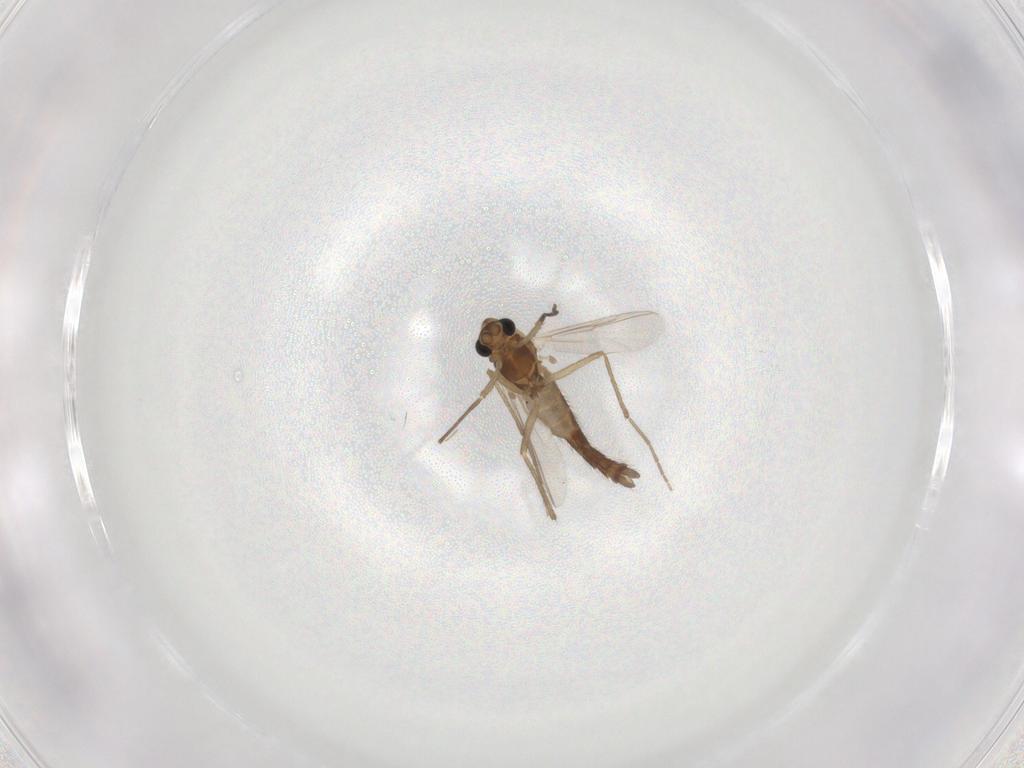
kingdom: Animalia
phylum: Arthropoda
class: Insecta
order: Diptera
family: Chironomidae
